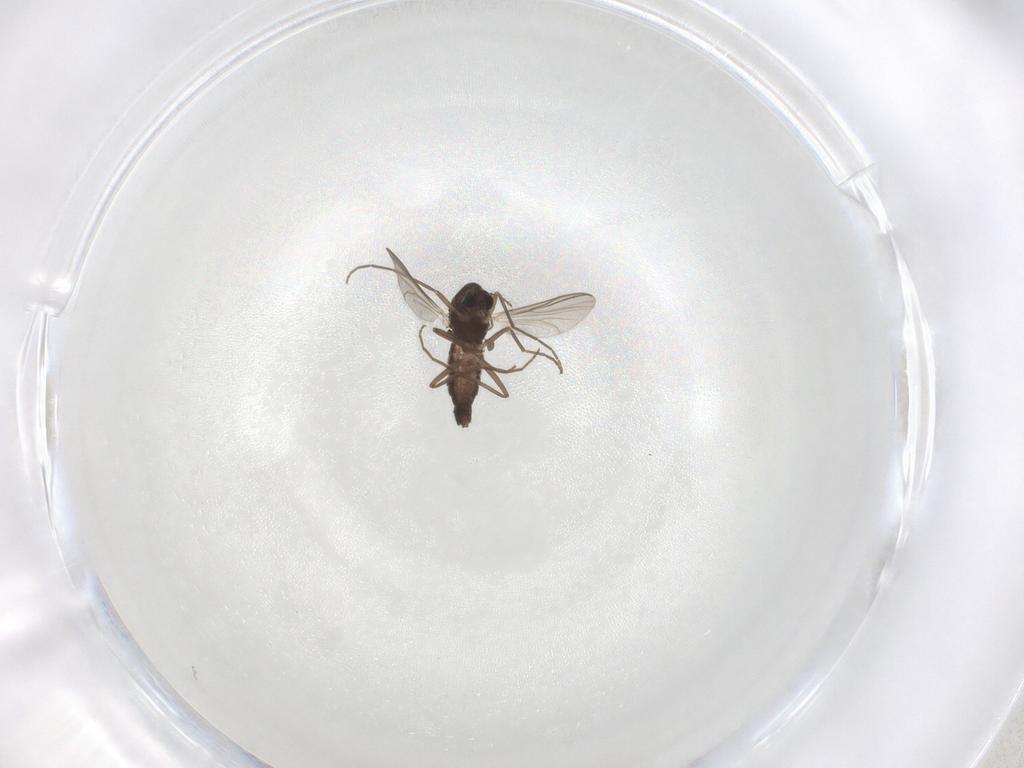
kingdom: Animalia
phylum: Arthropoda
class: Insecta
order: Diptera
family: Chironomidae
